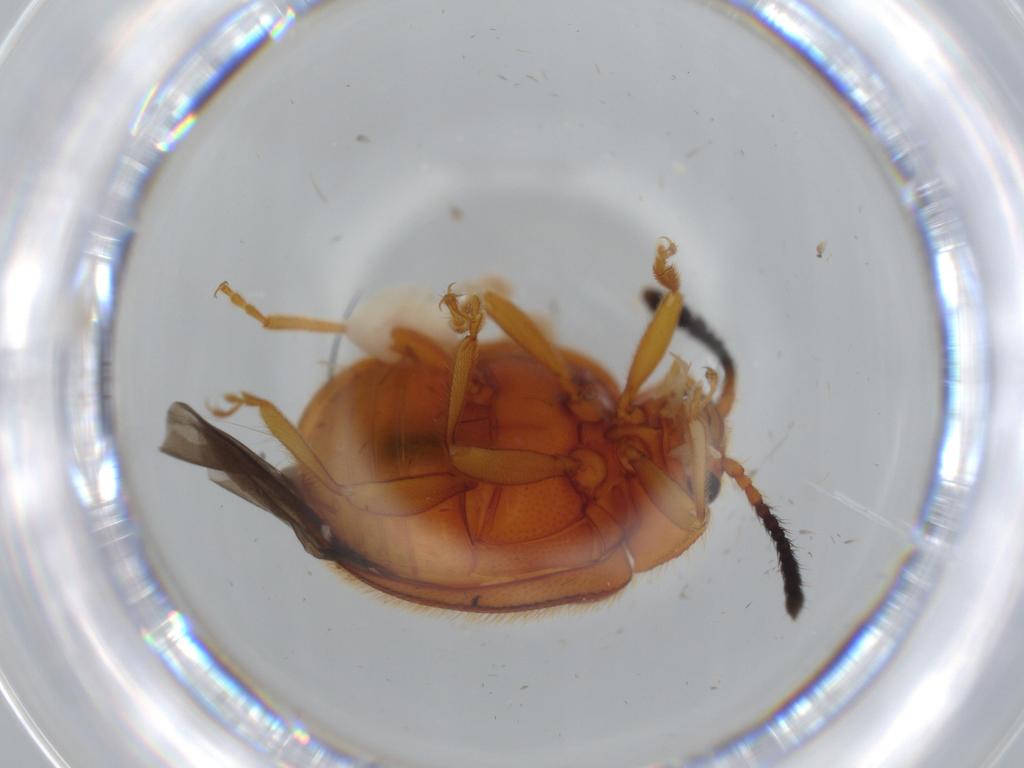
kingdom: Animalia
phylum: Arthropoda
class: Insecta
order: Coleoptera
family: Endomychidae
